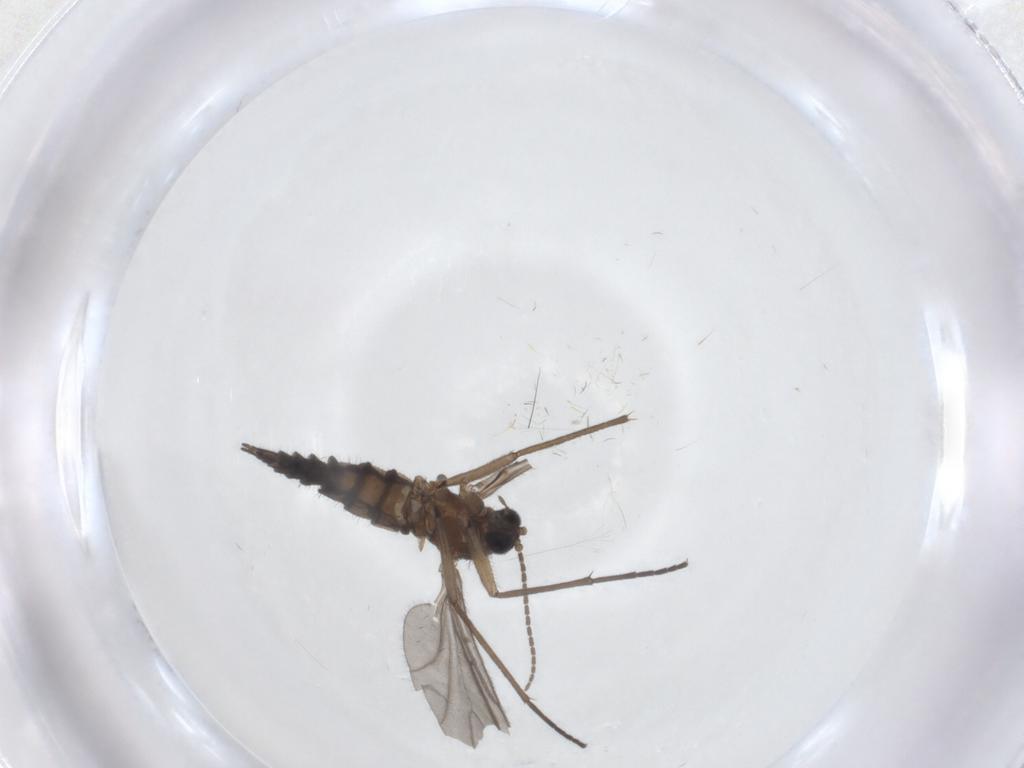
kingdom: Animalia
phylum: Arthropoda
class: Insecta
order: Diptera
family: Sciaridae
